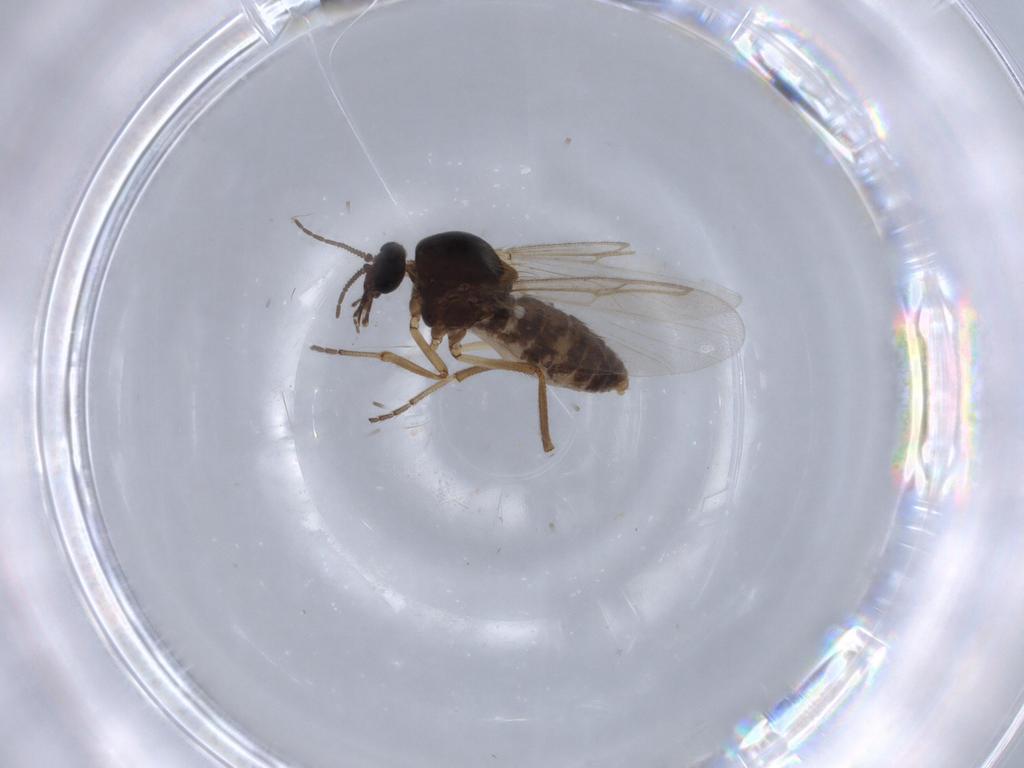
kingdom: Animalia
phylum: Arthropoda
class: Insecta
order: Diptera
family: Ceratopogonidae
